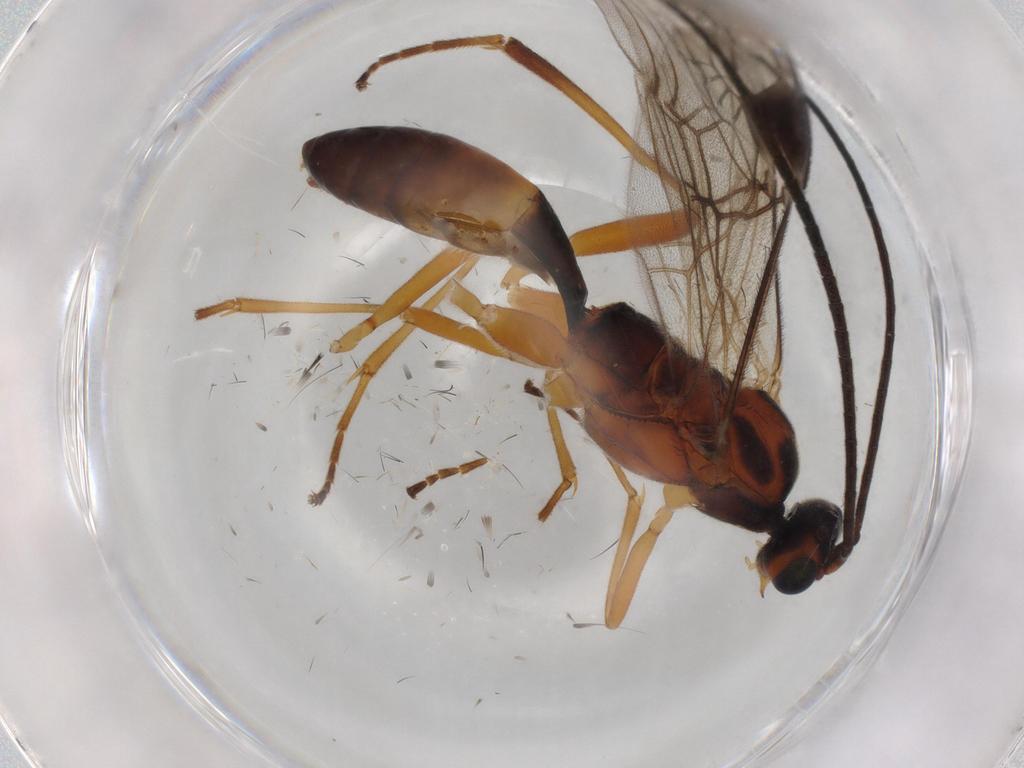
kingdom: Animalia
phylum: Arthropoda
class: Insecta
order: Hymenoptera
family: Braconidae
